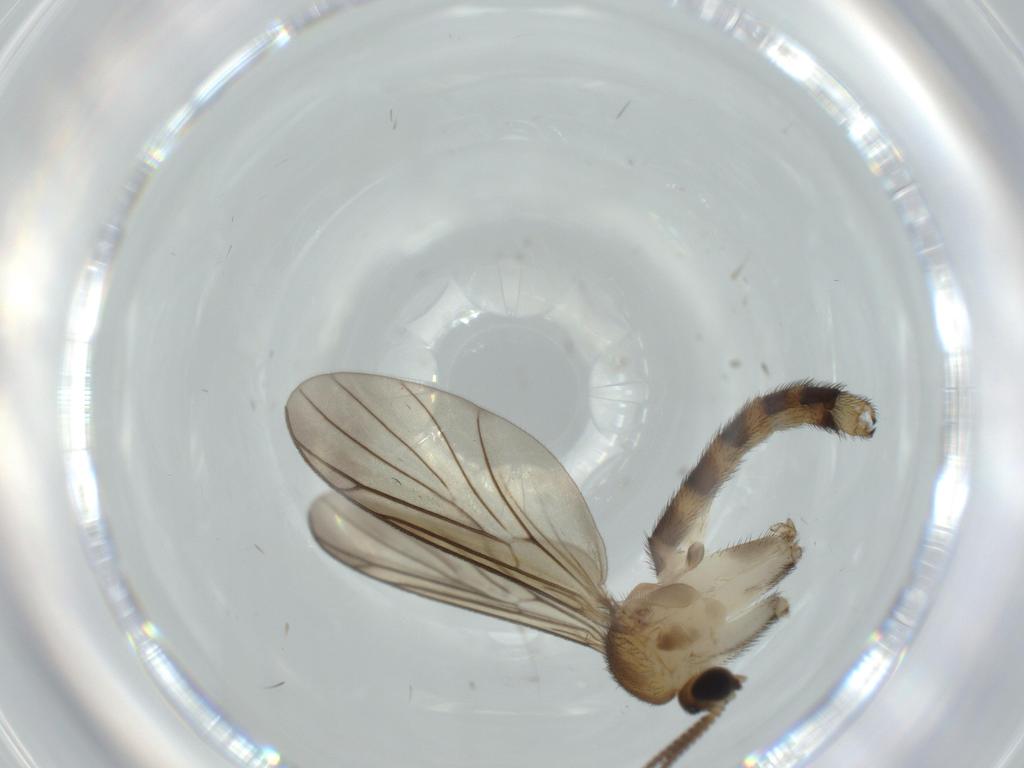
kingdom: Animalia
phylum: Arthropoda
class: Insecta
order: Diptera
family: Mycetophilidae
